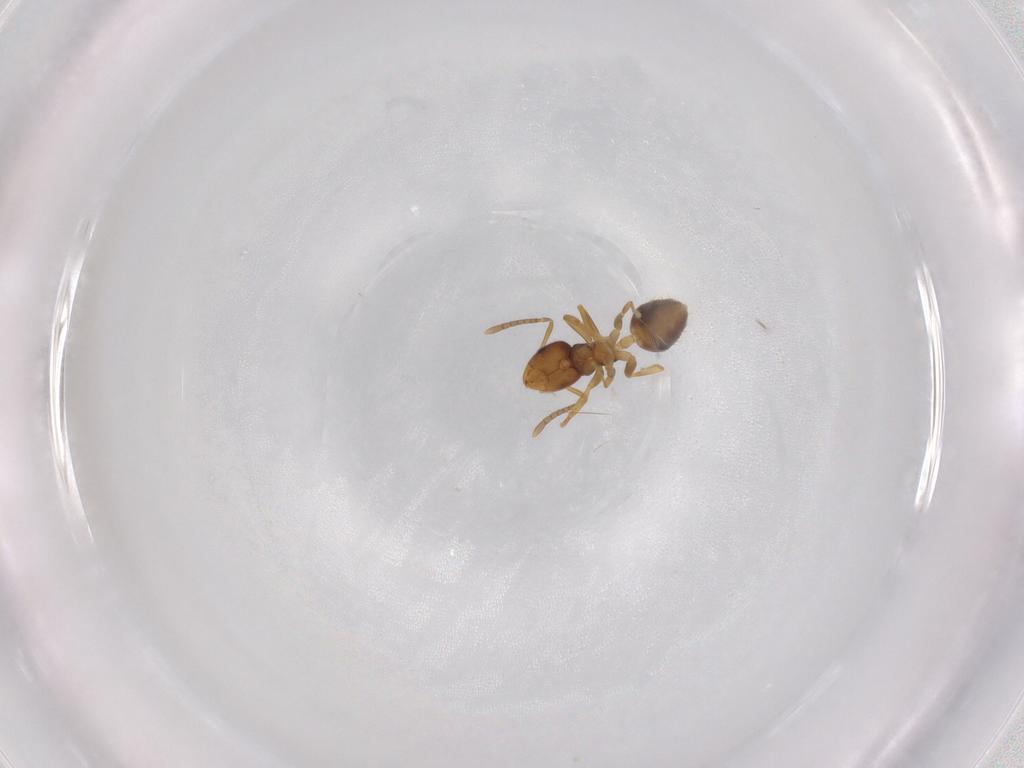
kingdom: Animalia
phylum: Arthropoda
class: Insecta
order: Hymenoptera
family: Formicidae
